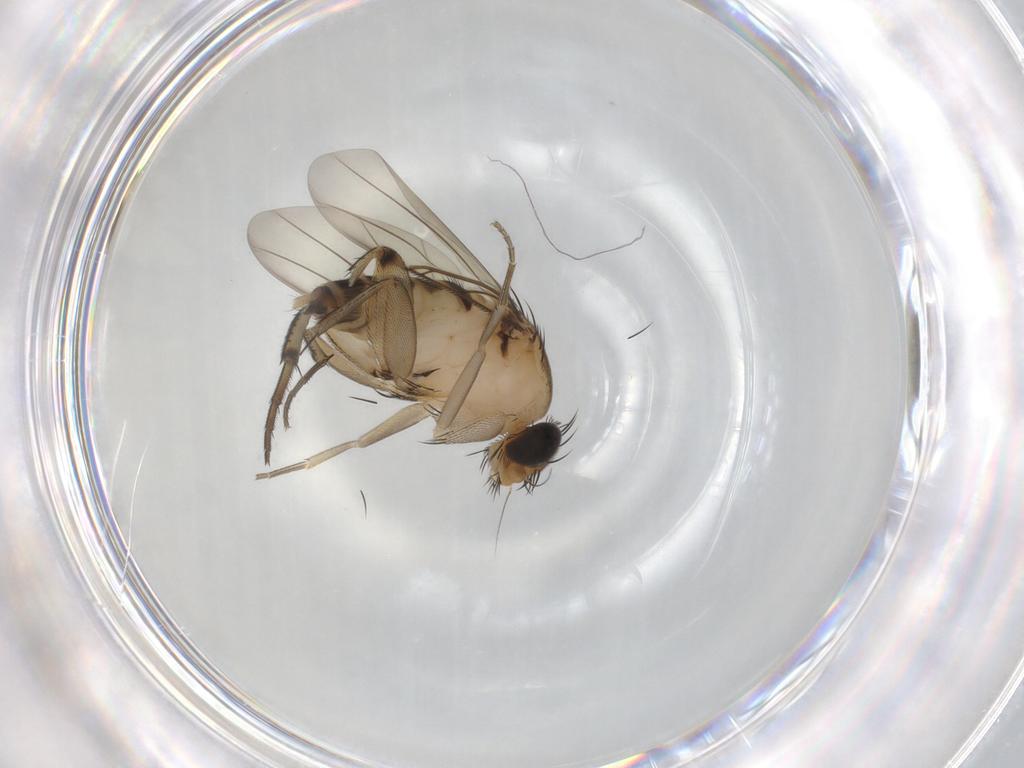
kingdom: Animalia
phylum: Arthropoda
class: Insecta
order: Diptera
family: Phoridae
